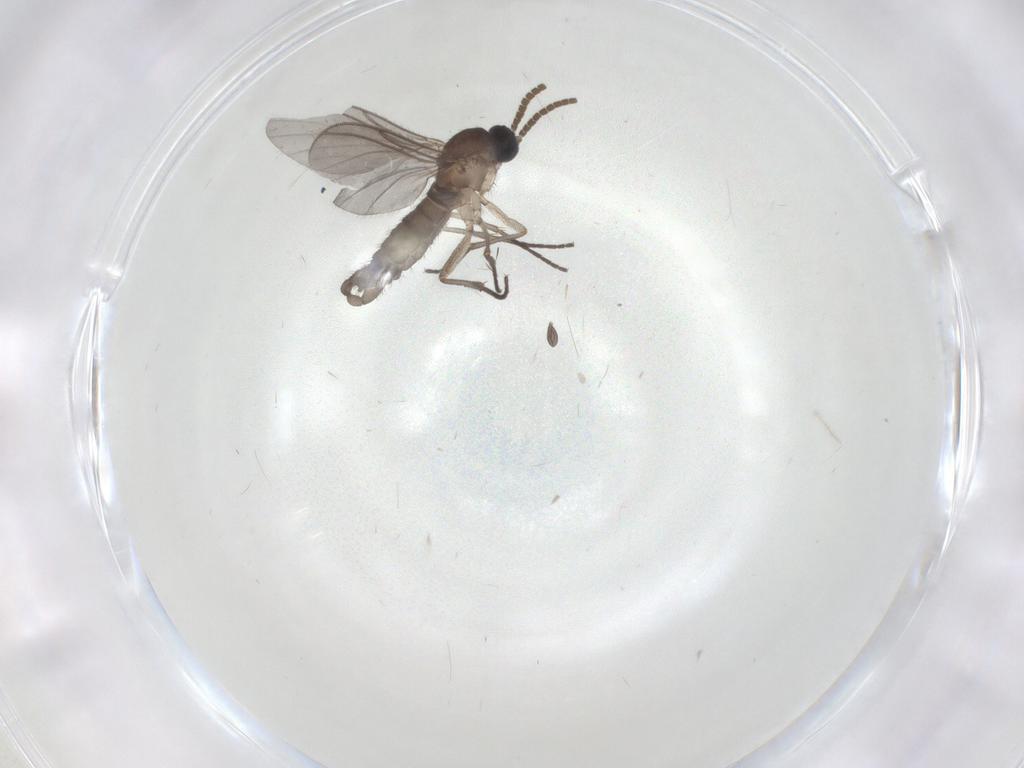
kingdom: Animalia
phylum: Arthropoda
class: Insecta
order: Diptera
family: Chironomidae
